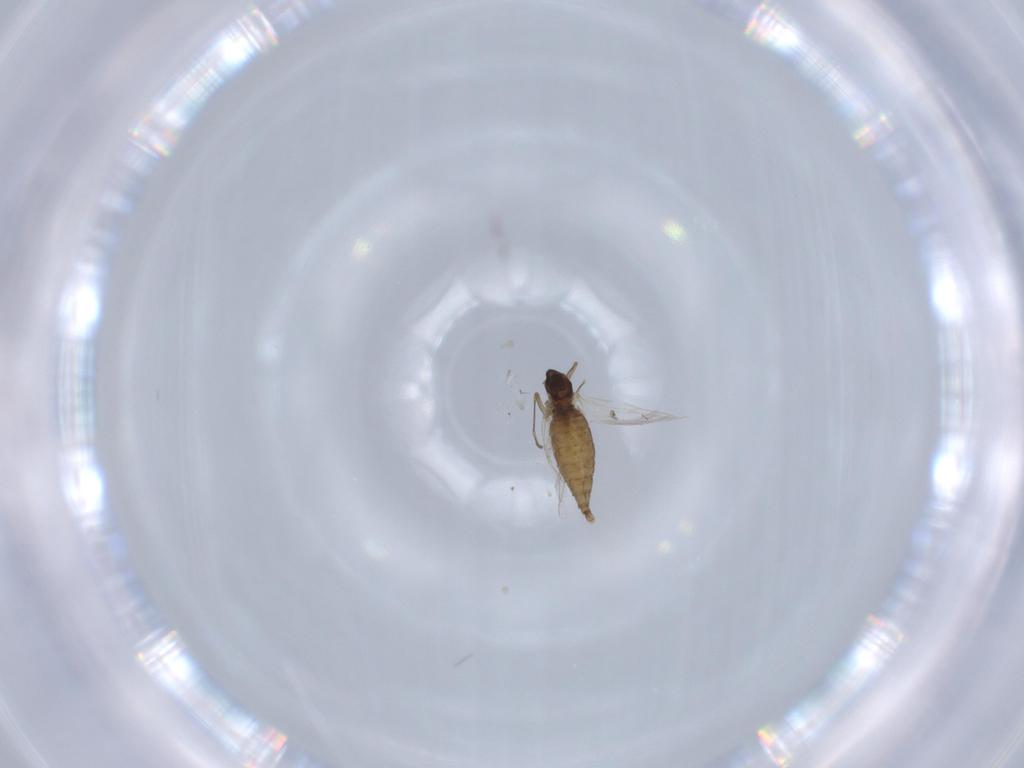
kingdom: Animalia
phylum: Arthropoda
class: Insecta
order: Diptera
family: Cecidomyiidae
